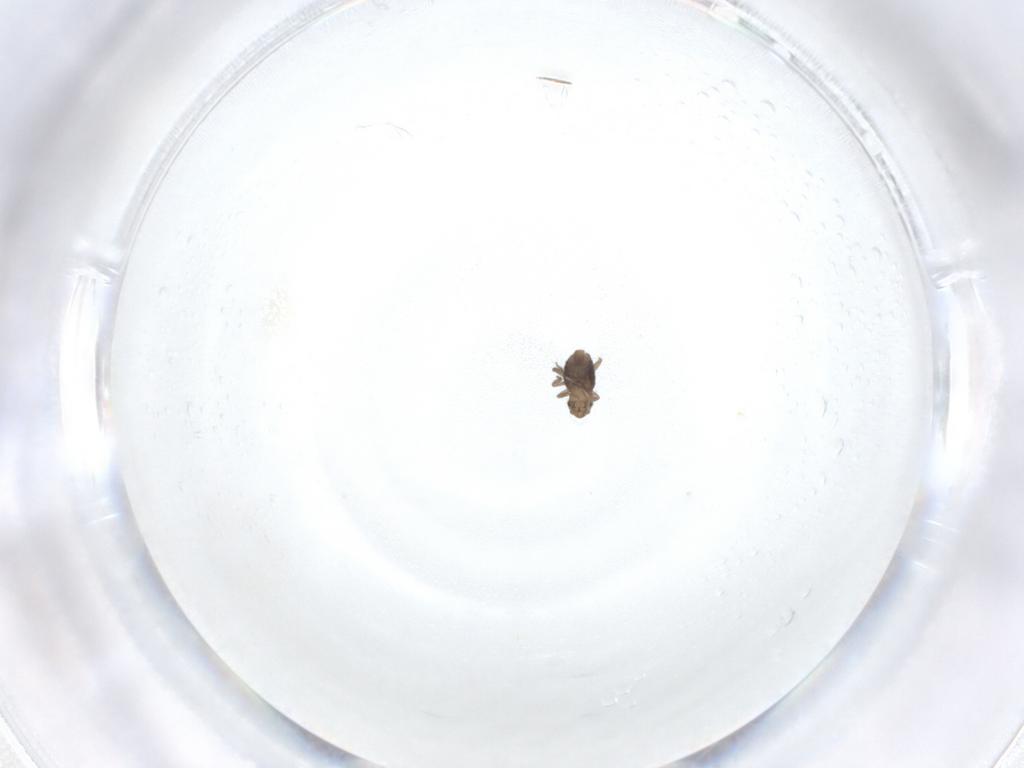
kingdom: Animalia
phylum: Arthropoda
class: Insecta
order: Diptera
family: Phoridae
